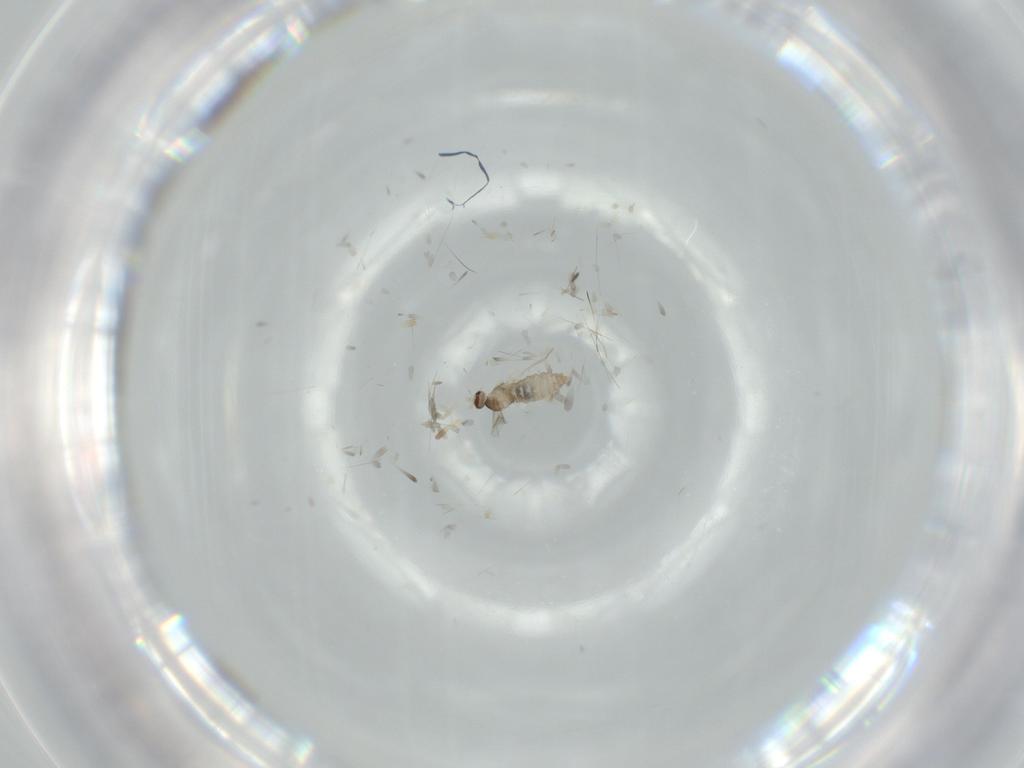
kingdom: Animalia
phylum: Arthropoda
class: Insecta
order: Diptera
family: Cecidomyiidae
